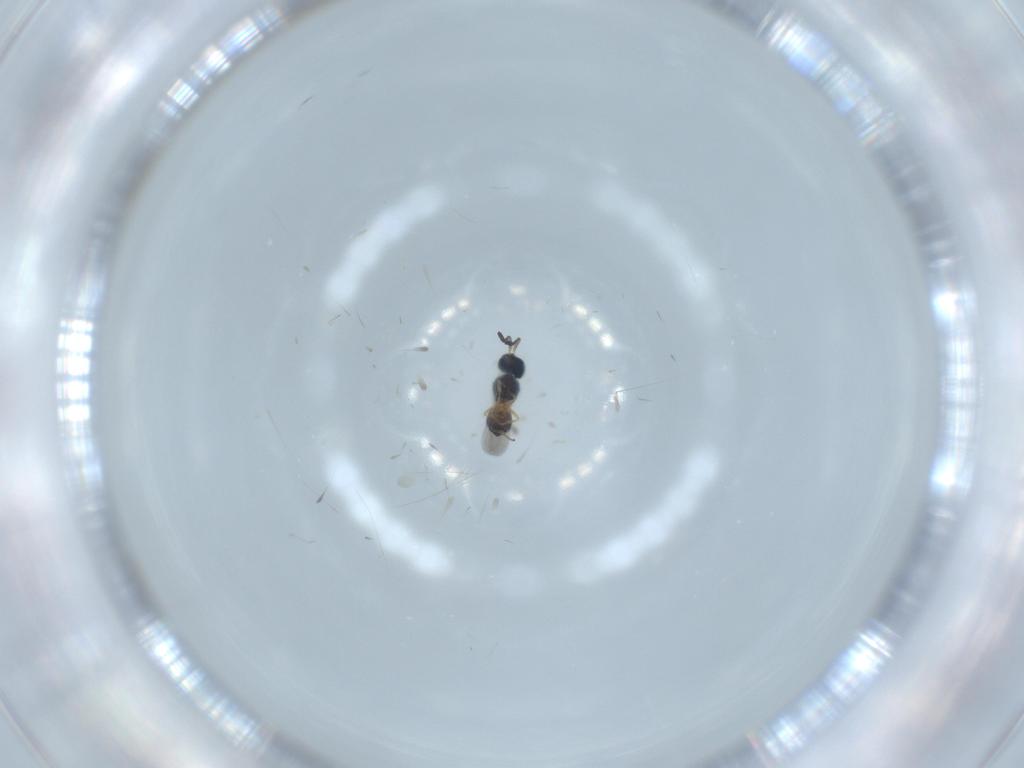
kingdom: Animalia
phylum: Arthropoda
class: Insecta
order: Hymenoptera
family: Scelionidae
